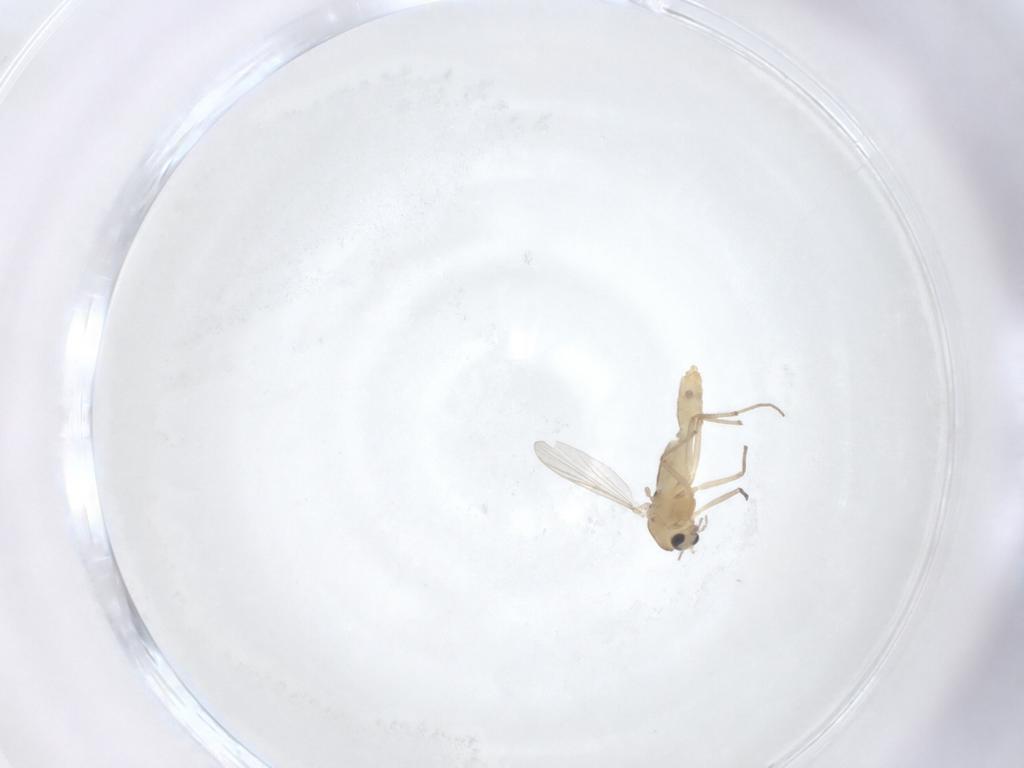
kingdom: Animalia
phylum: Arthropoda
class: Insecta
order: Diptera
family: Chironomidae
